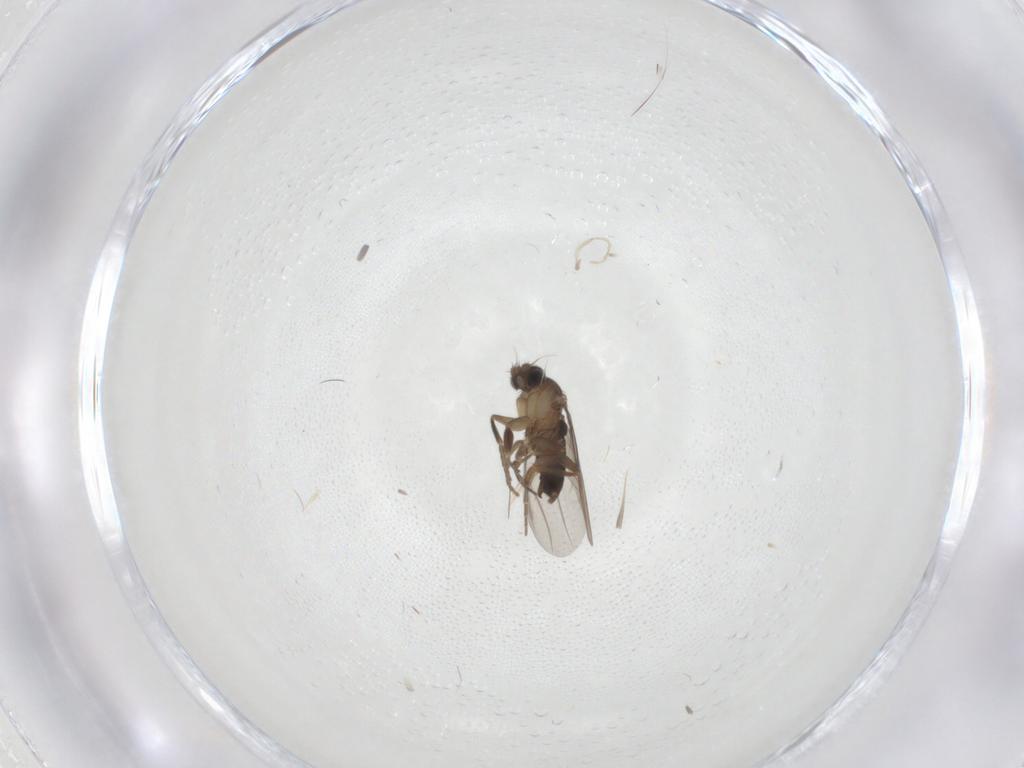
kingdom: Animalia
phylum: Arthropoda
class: Insecta
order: Diptera
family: Phoridae
